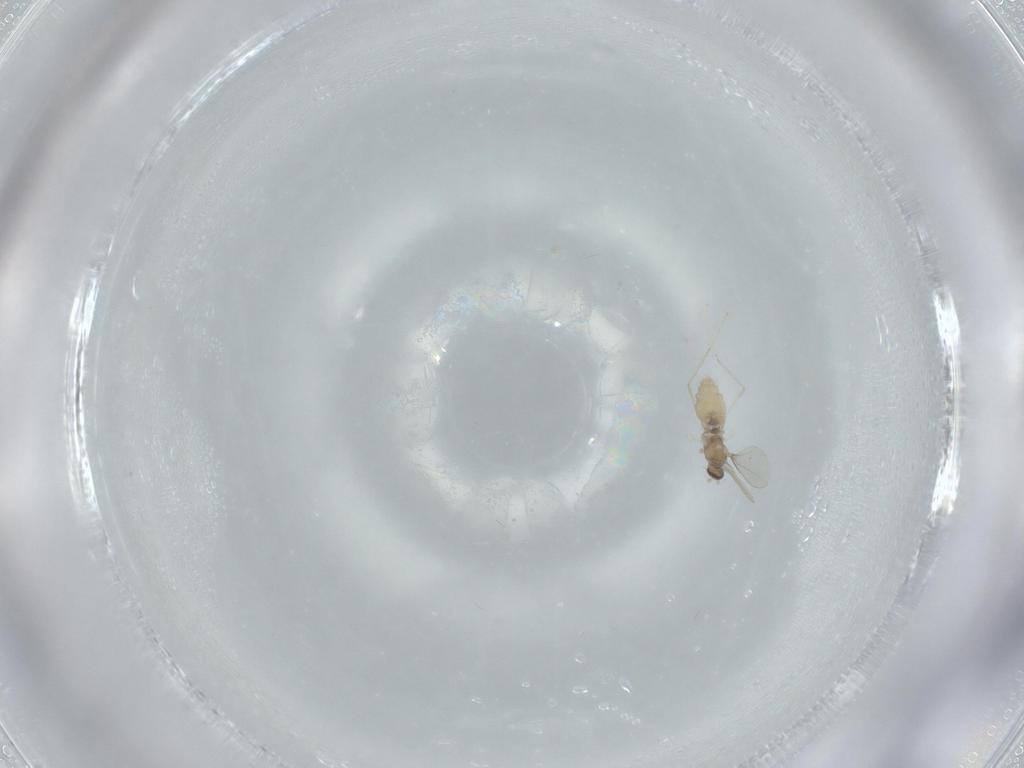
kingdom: Animalia
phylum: Arthropoda
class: Insecta
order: Diptera
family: Cecidomyiidae
